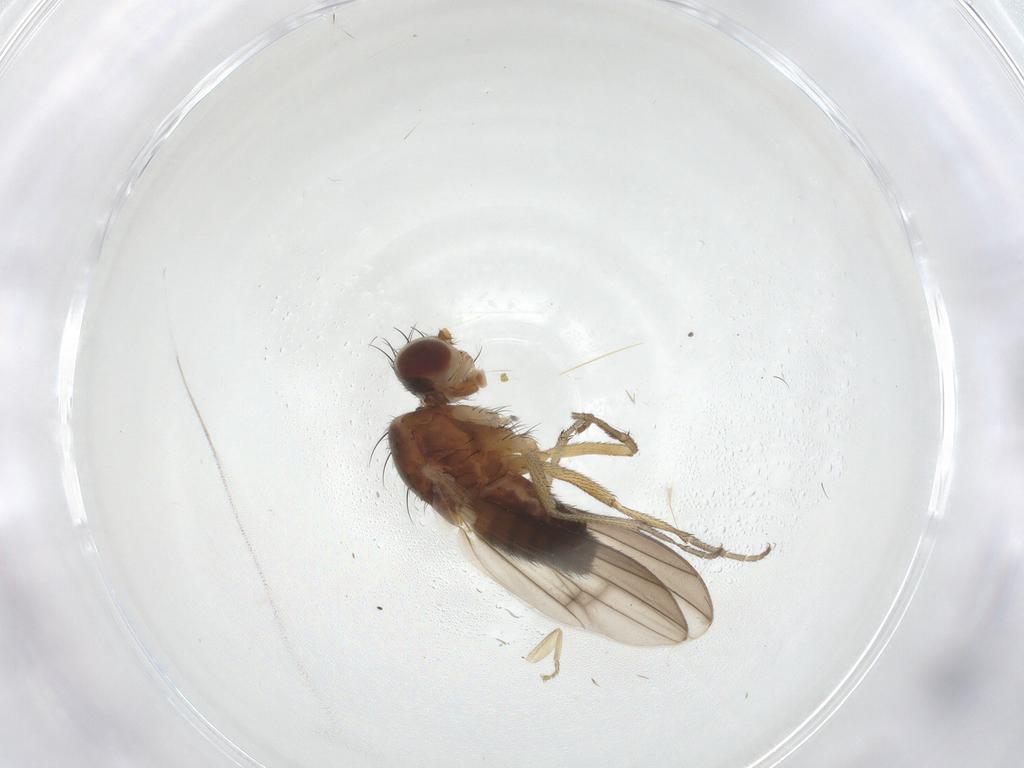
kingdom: Animalia
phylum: Arthropoda
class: Insecta
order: Diptera
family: Heleomyzidae
